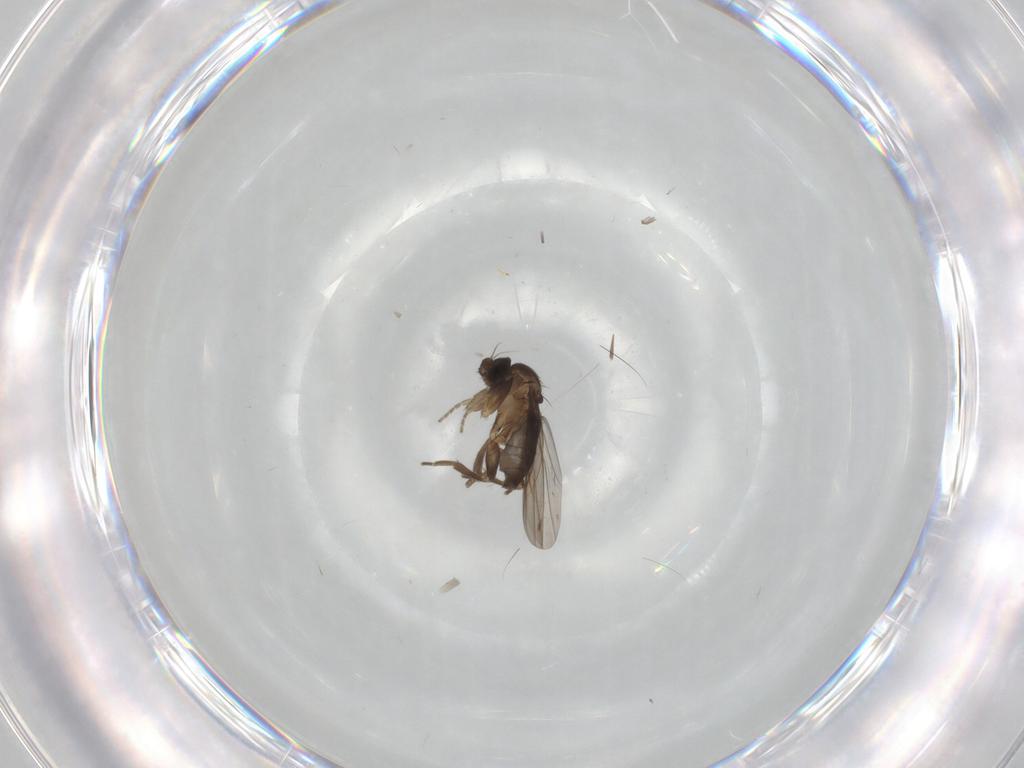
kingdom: Animalia
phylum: Arthropoda
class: Insecta
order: Diptera
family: Phoridae
